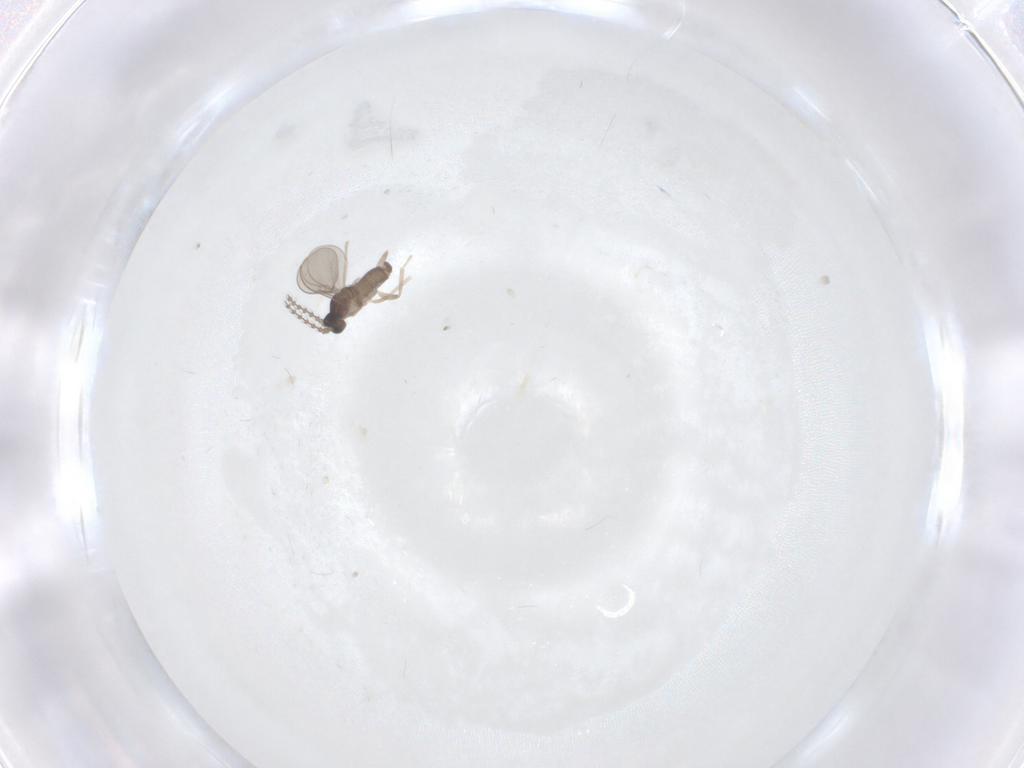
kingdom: Animalia
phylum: Arthropoda
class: Insecta
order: Diptera
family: Cecidomyiidae
